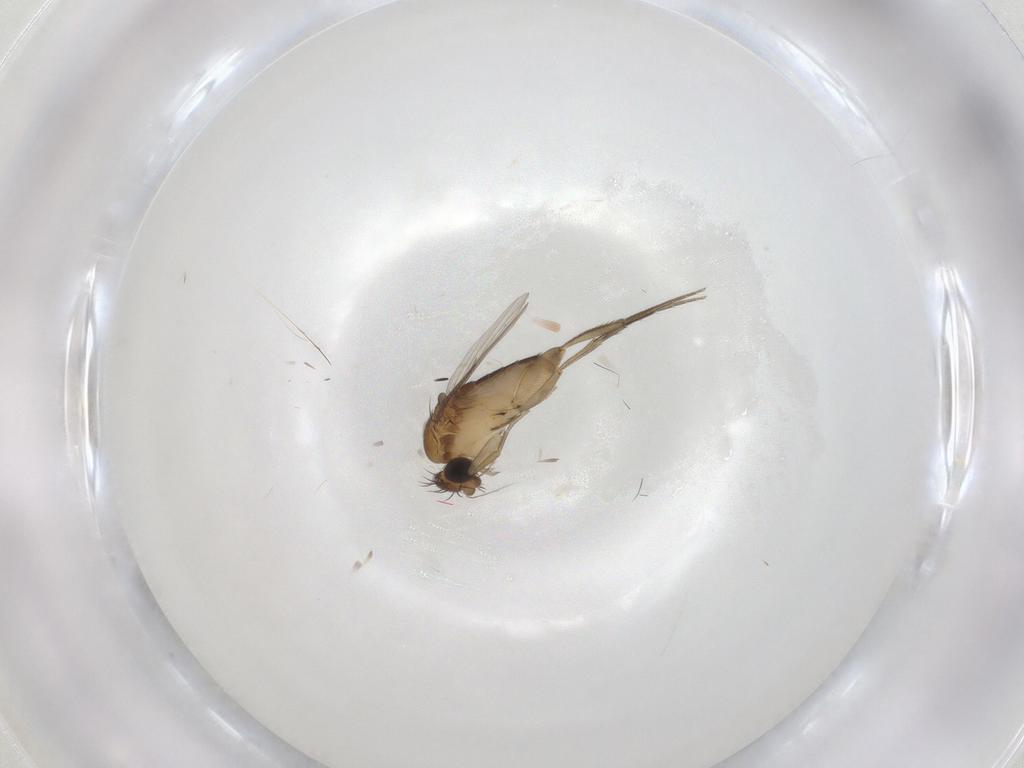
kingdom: Animalia
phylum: Arthropoda
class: Insecta
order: Diptera
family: Phoridae
